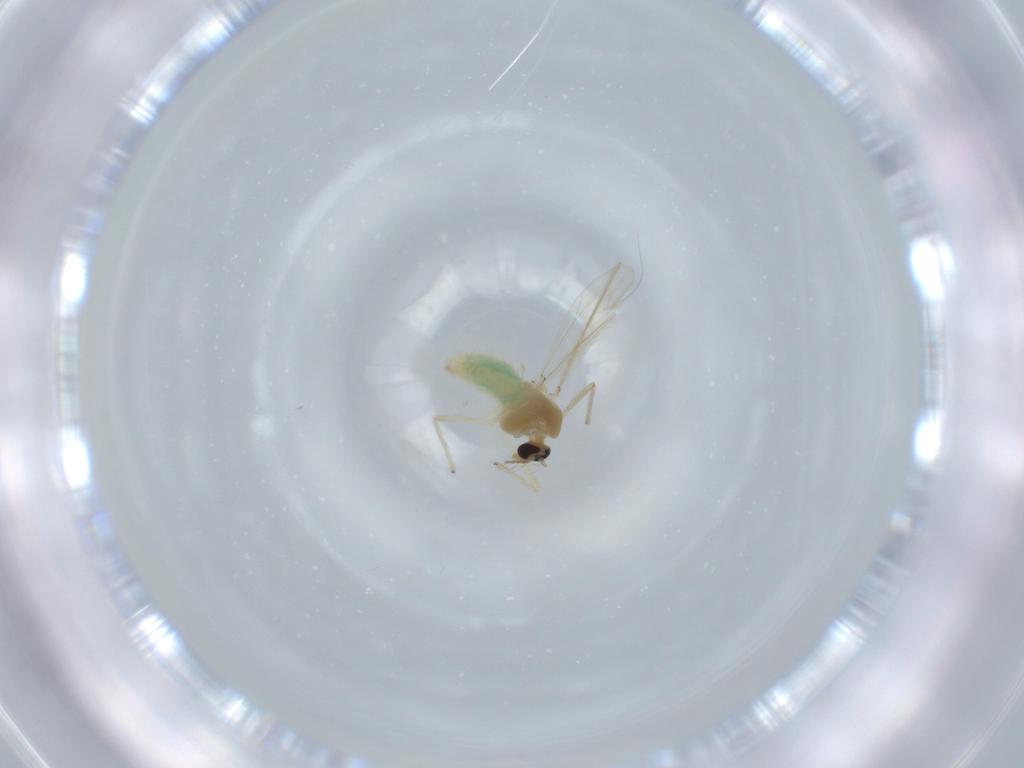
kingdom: Animalia
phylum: Arthropoda
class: Insecta
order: Diptera
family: Chironomidae
